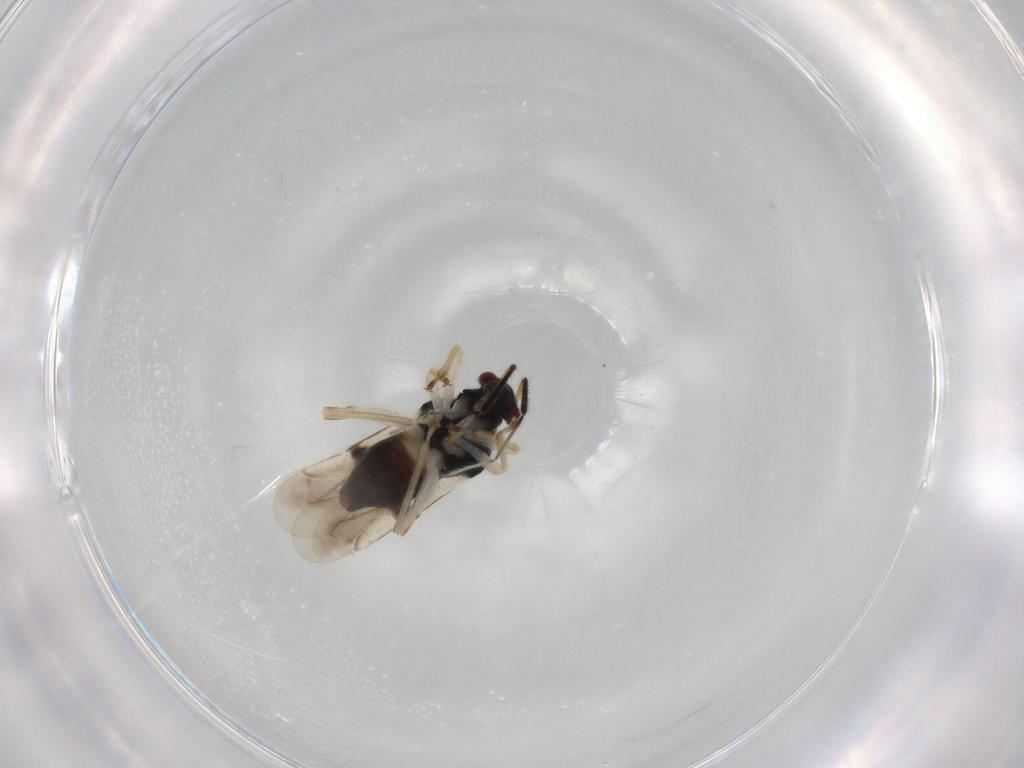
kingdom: Animalia
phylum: Arthropoda
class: Insecta
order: Hemiptera
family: Miridae
